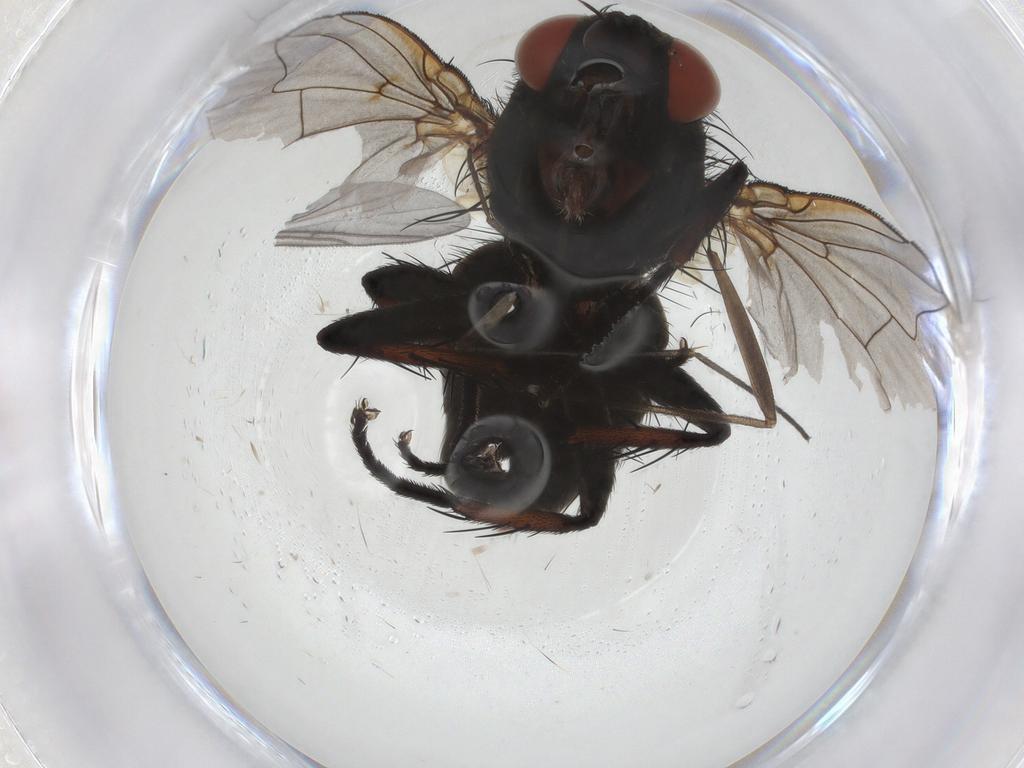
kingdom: Animalia
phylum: Arthropoda
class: Insecta
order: Diptera
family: Sarcophagidae
